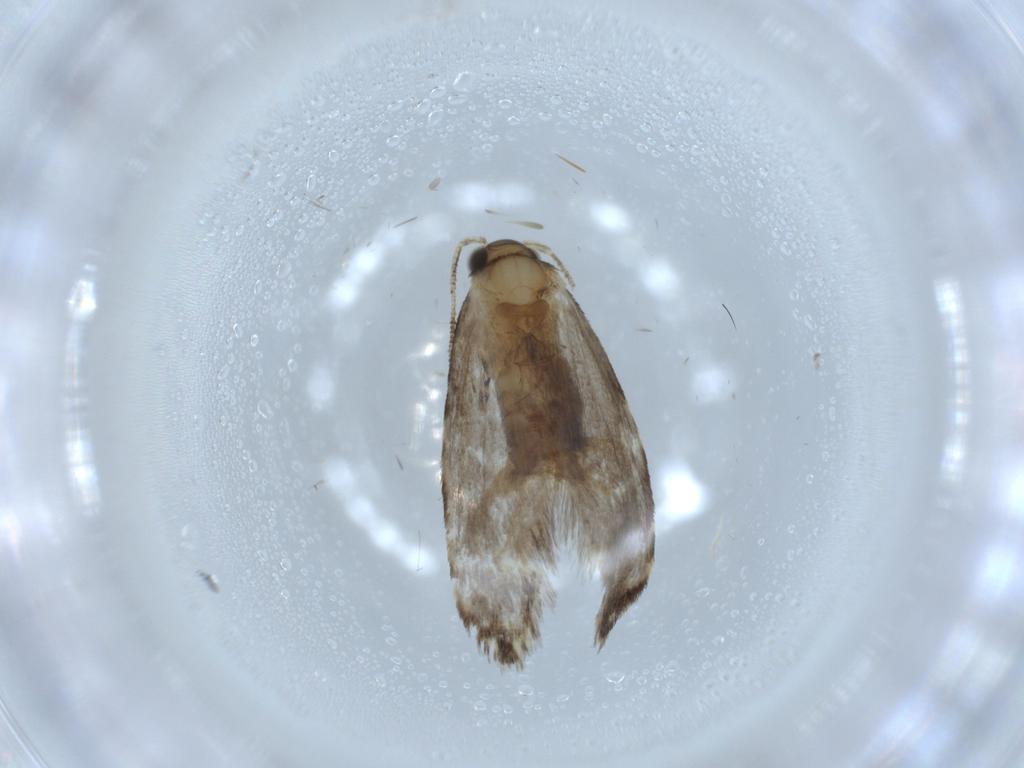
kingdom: Animalia
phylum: Arthropoda
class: Insecta
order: Lepidoptera
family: Tineidae
